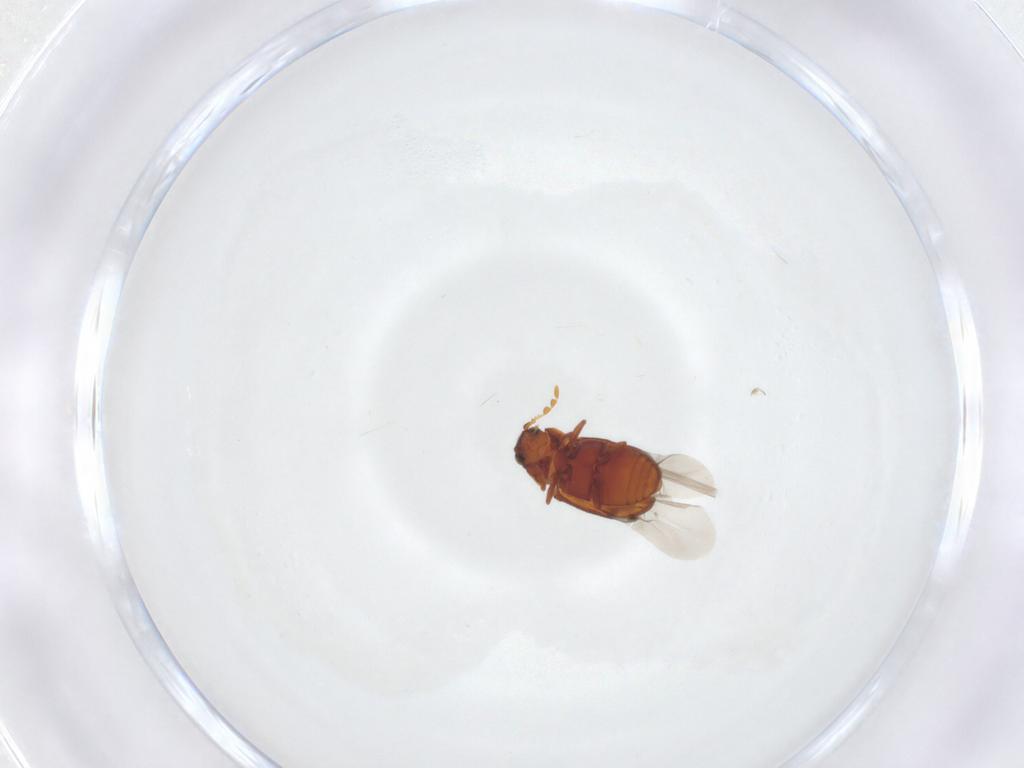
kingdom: Animalia
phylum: Arthropoda
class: Insecta
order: Coleoptera
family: Ptinidae
